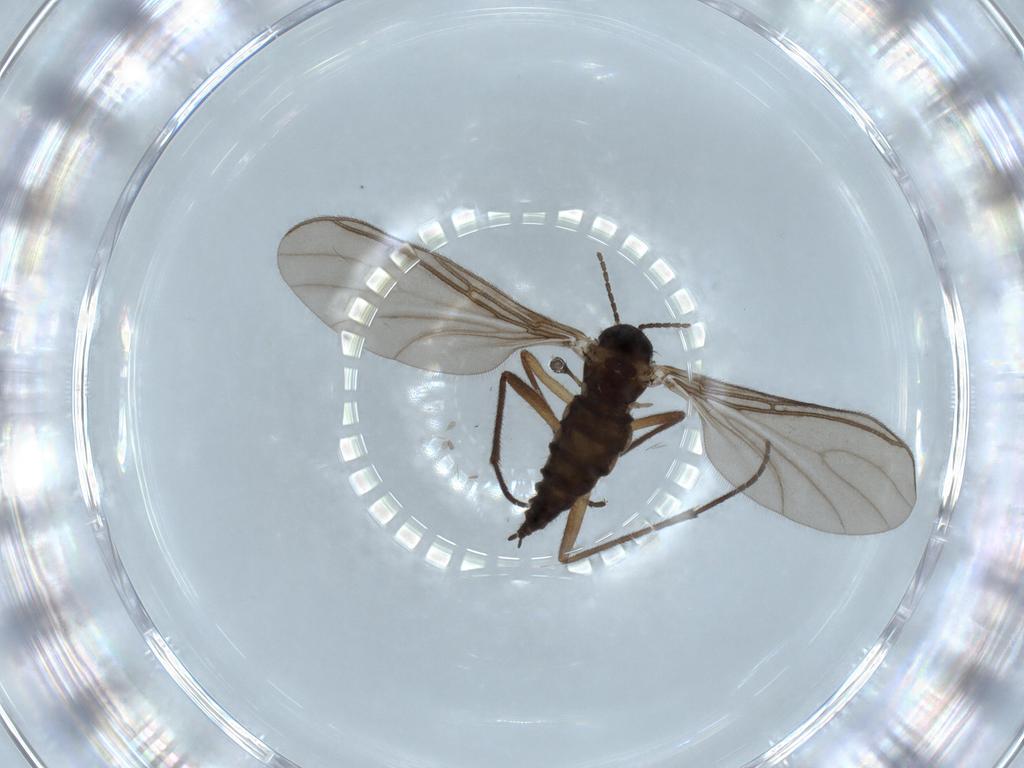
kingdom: Animalia
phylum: Arthropoda
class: Insecta
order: Diptera
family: Sciaridae
